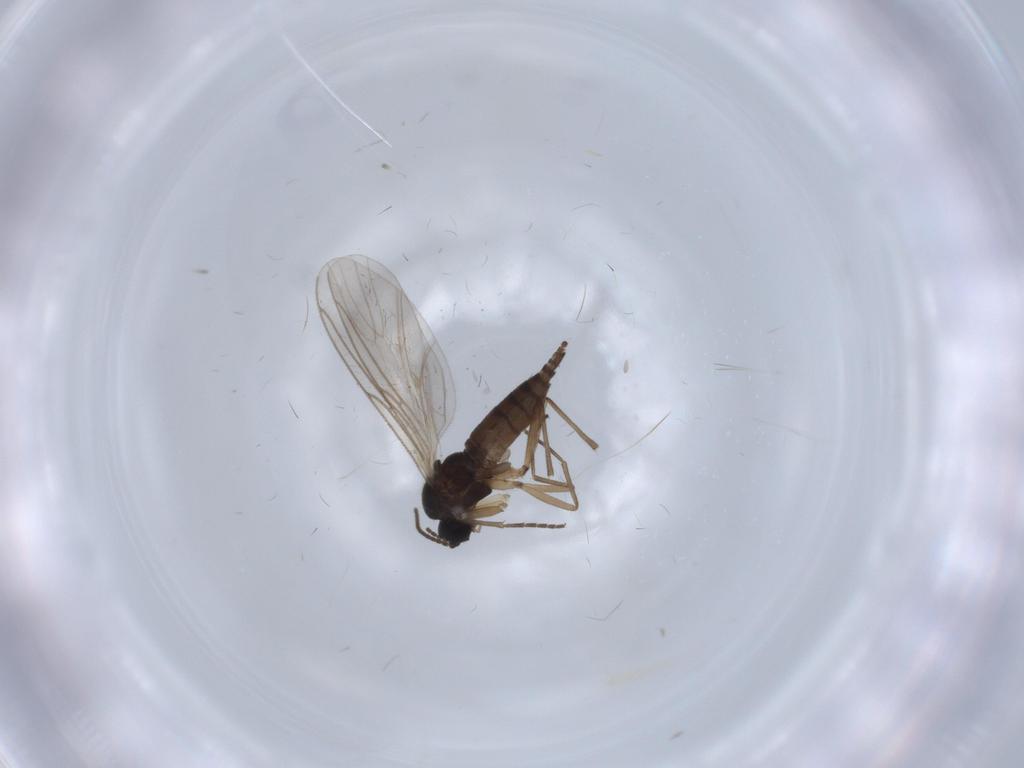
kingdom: Animalia
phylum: Arthropoda
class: Insecta
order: Diptera
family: Sciaridae
